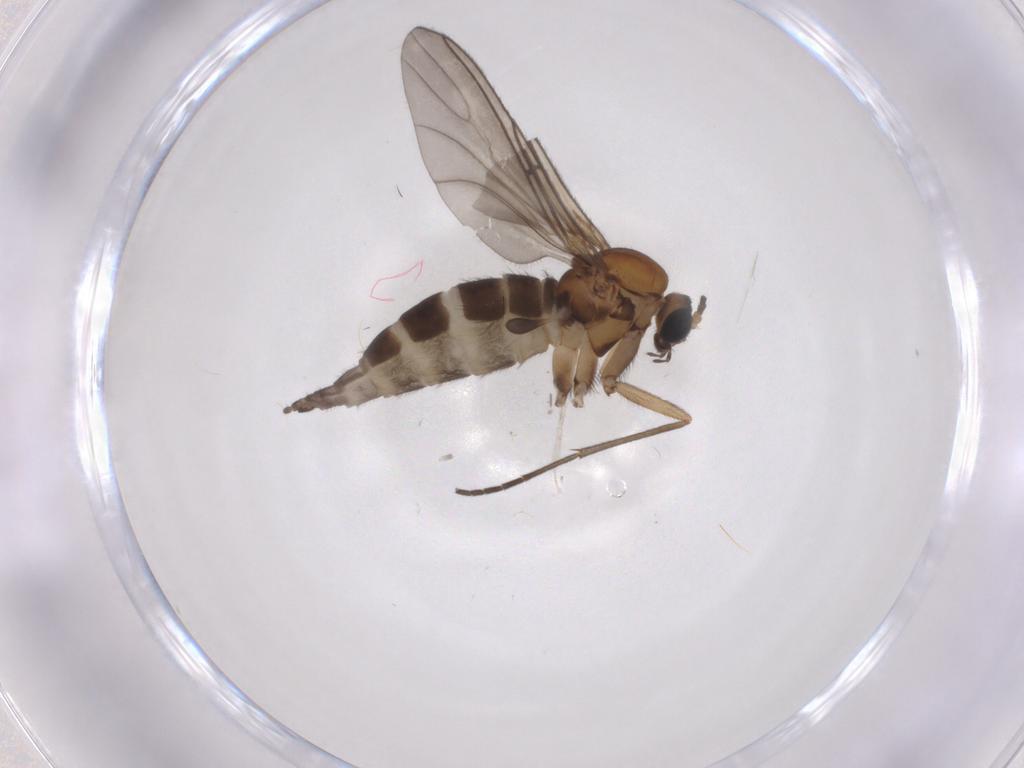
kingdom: Animalia
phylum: Arthropoda
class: Insecta
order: Diptera
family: Sciaridae
